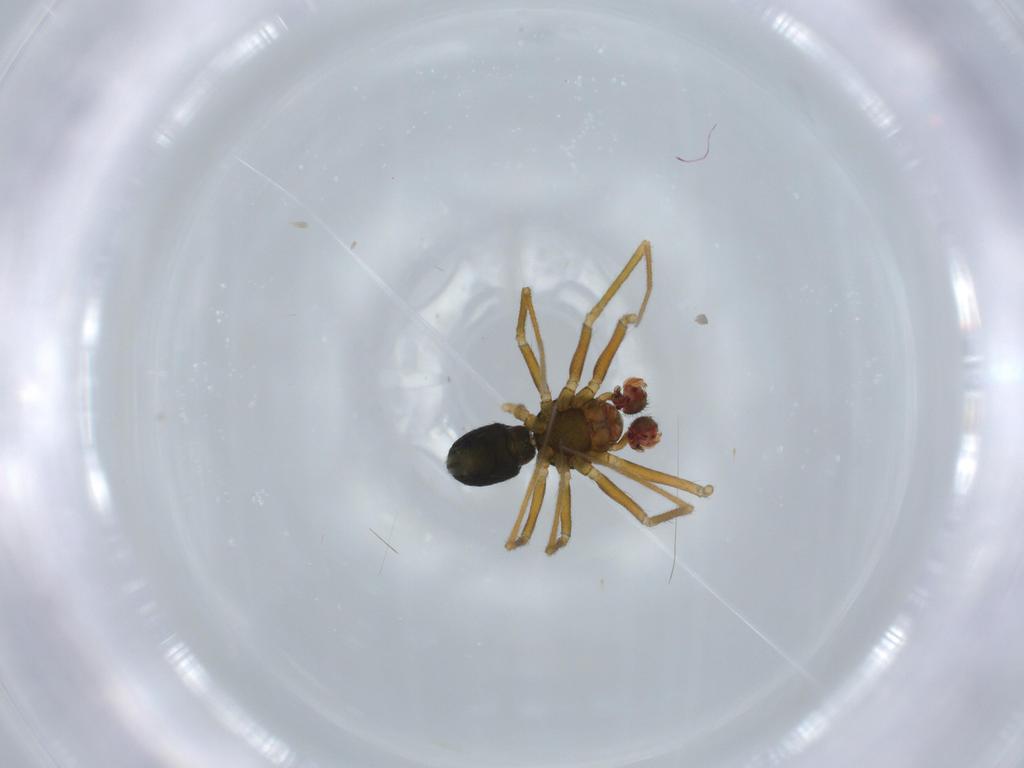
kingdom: Animalia
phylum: Arthropoda
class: Arachnida
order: Araneae
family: Linyphiidae
